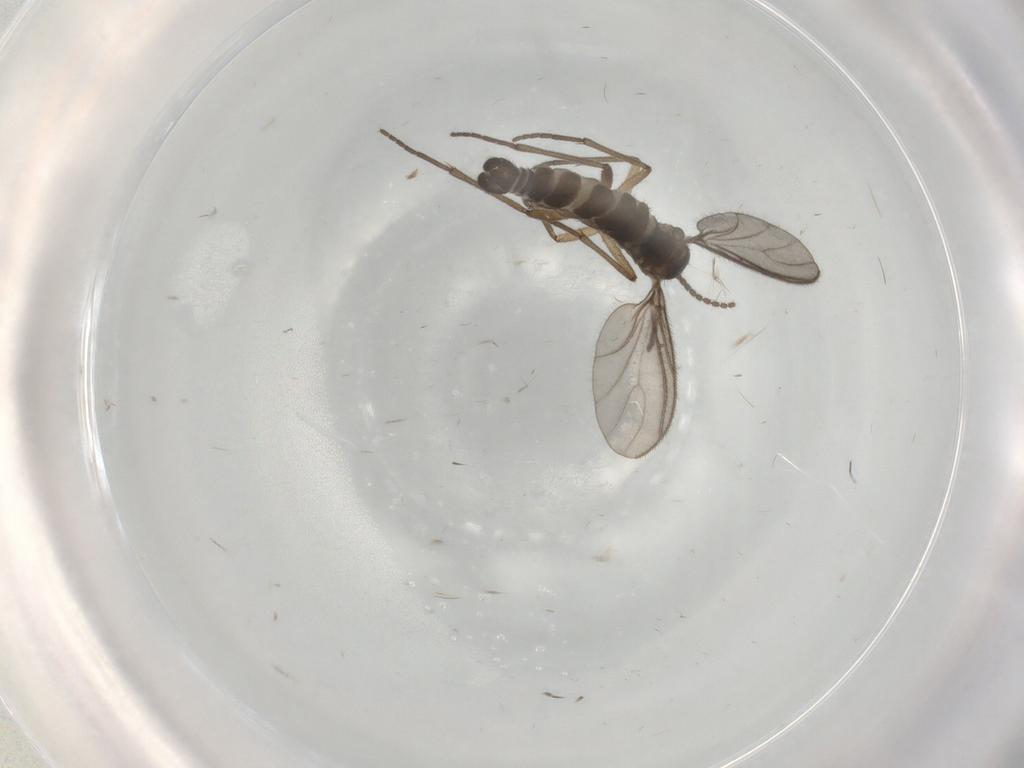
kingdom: Animalia
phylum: Arthropoda
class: Insecta
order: Diptera
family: Sciaridae
